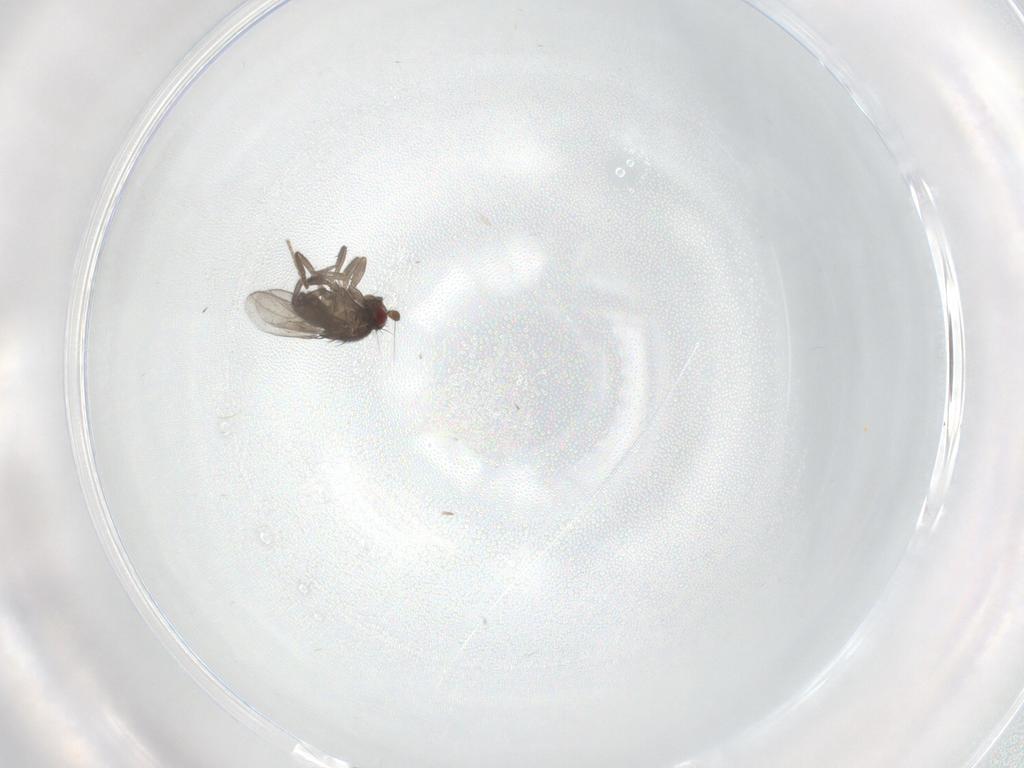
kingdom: Animalia
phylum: Arthropoda
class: Insecta
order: Diptera
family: Cecidomyiidae
